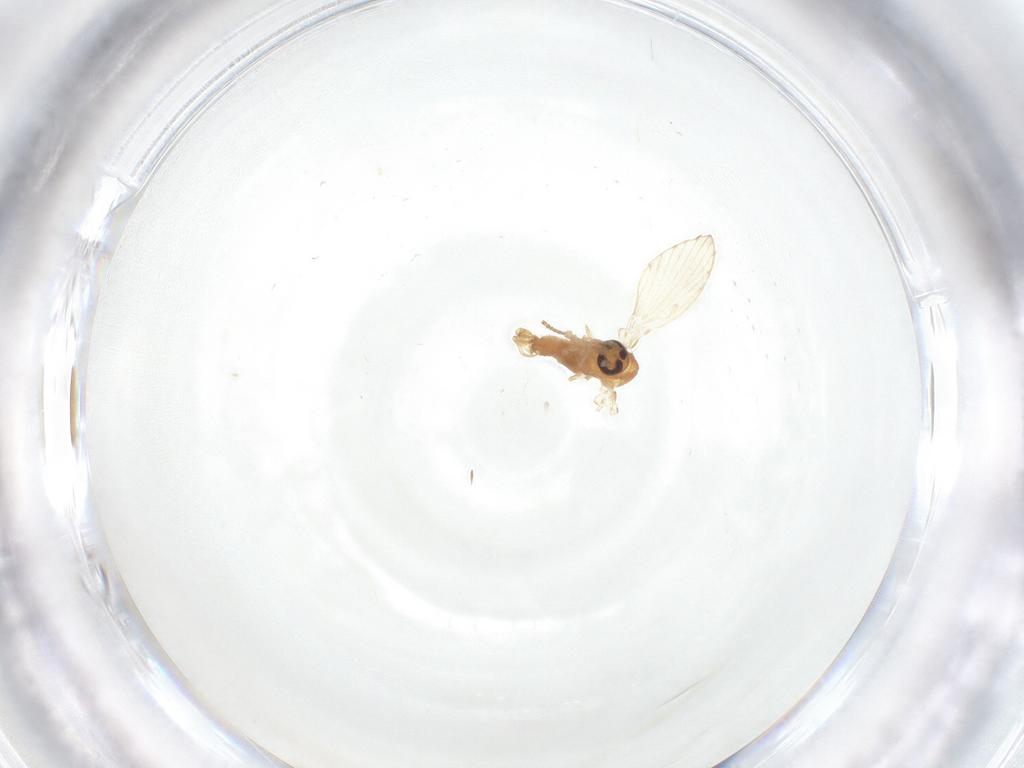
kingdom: Animalia
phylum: Arthropoda
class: Insecta
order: Diptera
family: Psychodidae
